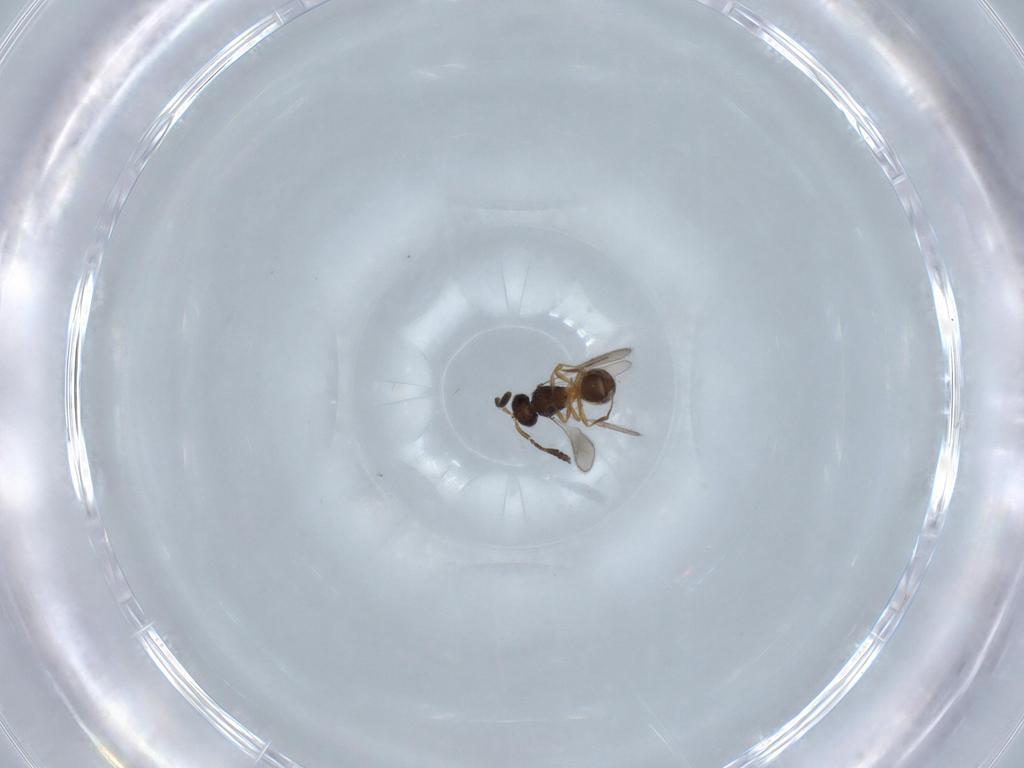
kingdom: Animalia
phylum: Arthropoda
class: Insecta
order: Hymenoptera
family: Scelionidae
